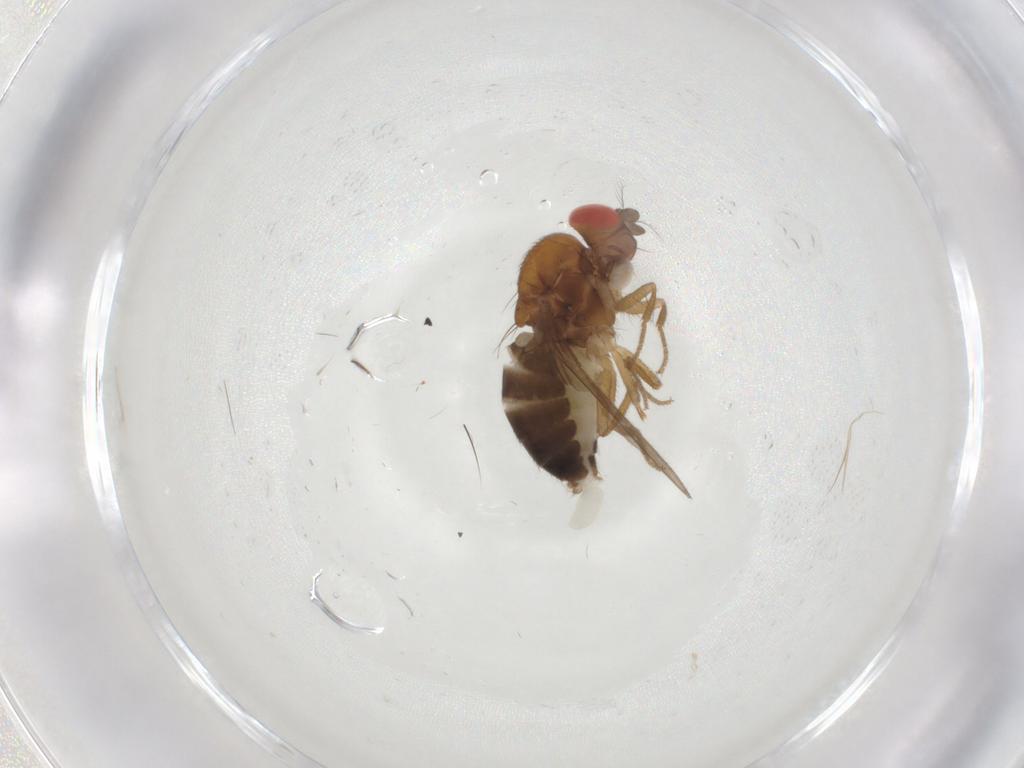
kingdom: Animalia
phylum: Arthropoda
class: Insecta
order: Diptera
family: Drosophilidae
